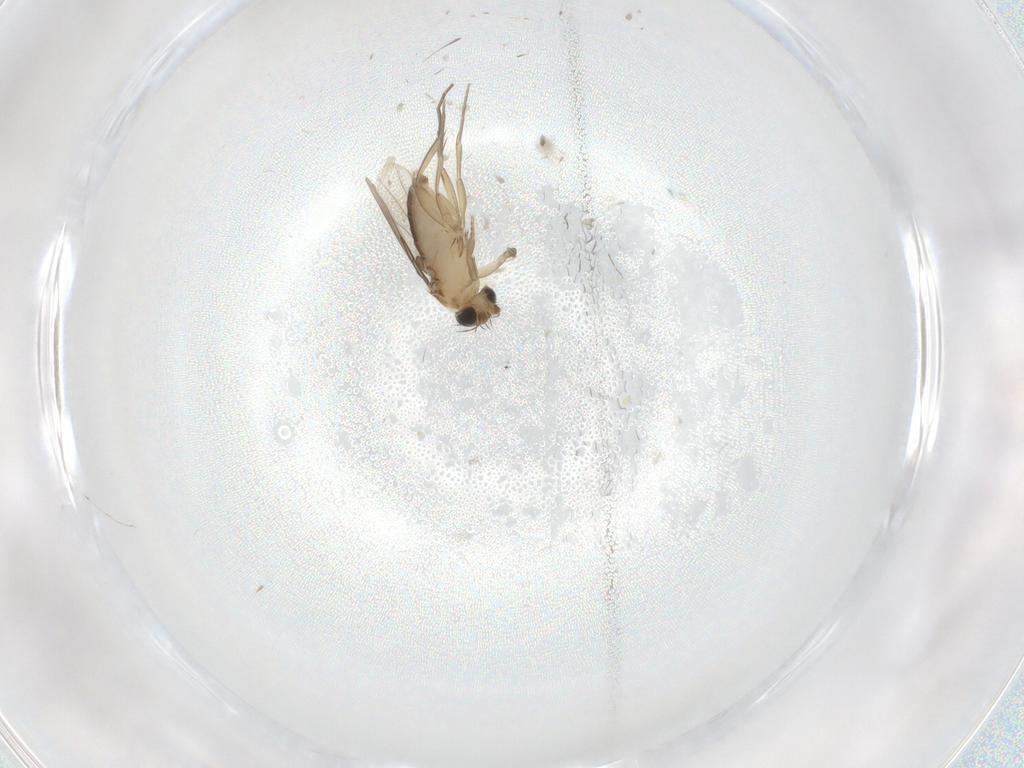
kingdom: Animalia
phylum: Arthropoda
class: Insecta
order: Diptera
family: Phoridae
